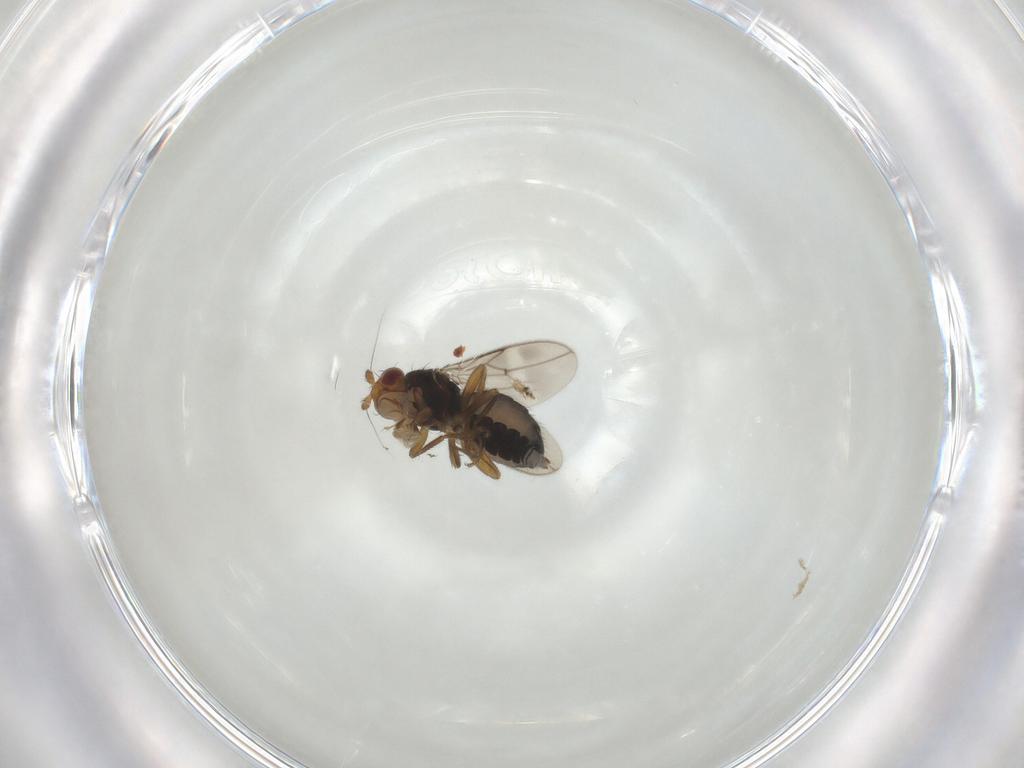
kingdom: Animalia
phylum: Arthropoda
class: Insecta
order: Diptera
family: Sphaeroceridae
